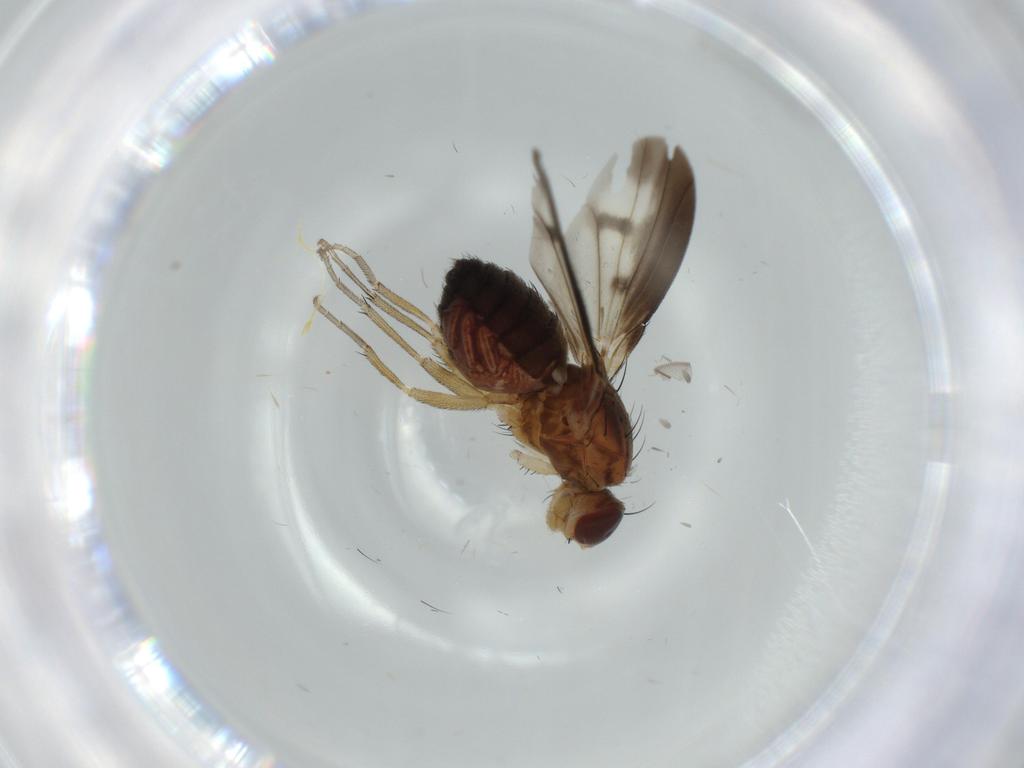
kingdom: Animalia
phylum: Arthropoda
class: Insecta
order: Diptera
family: Heleomyzidae
